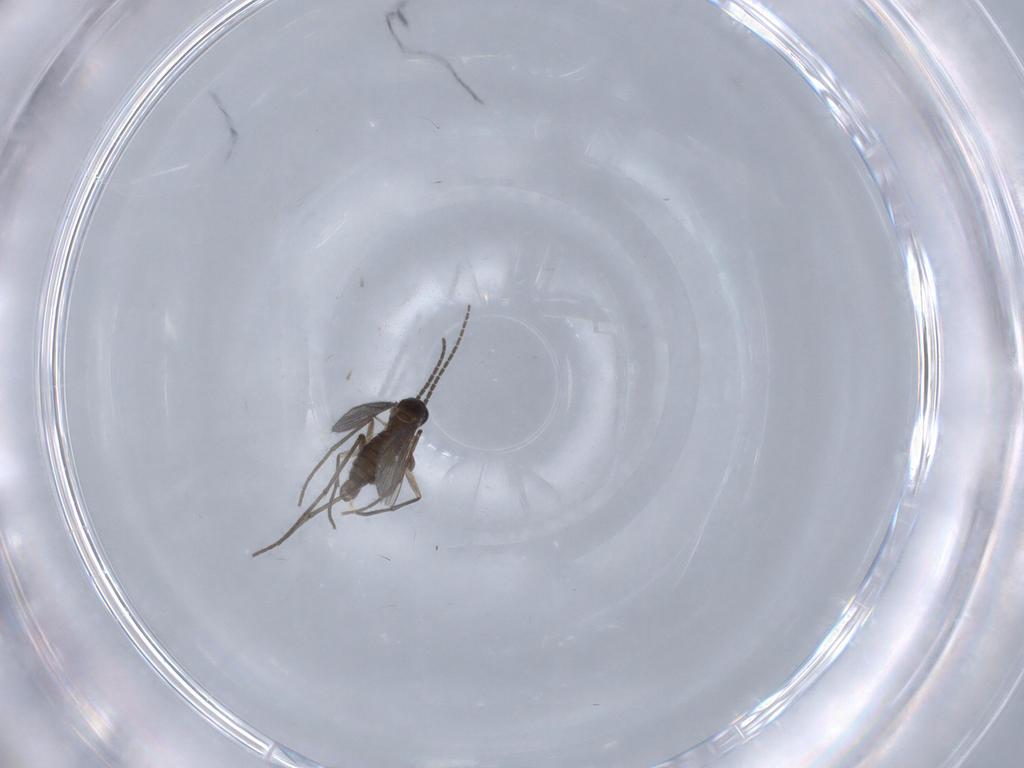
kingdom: Animalia
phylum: Arthropoda
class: Insecta
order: Diptera
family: Sciaridae
